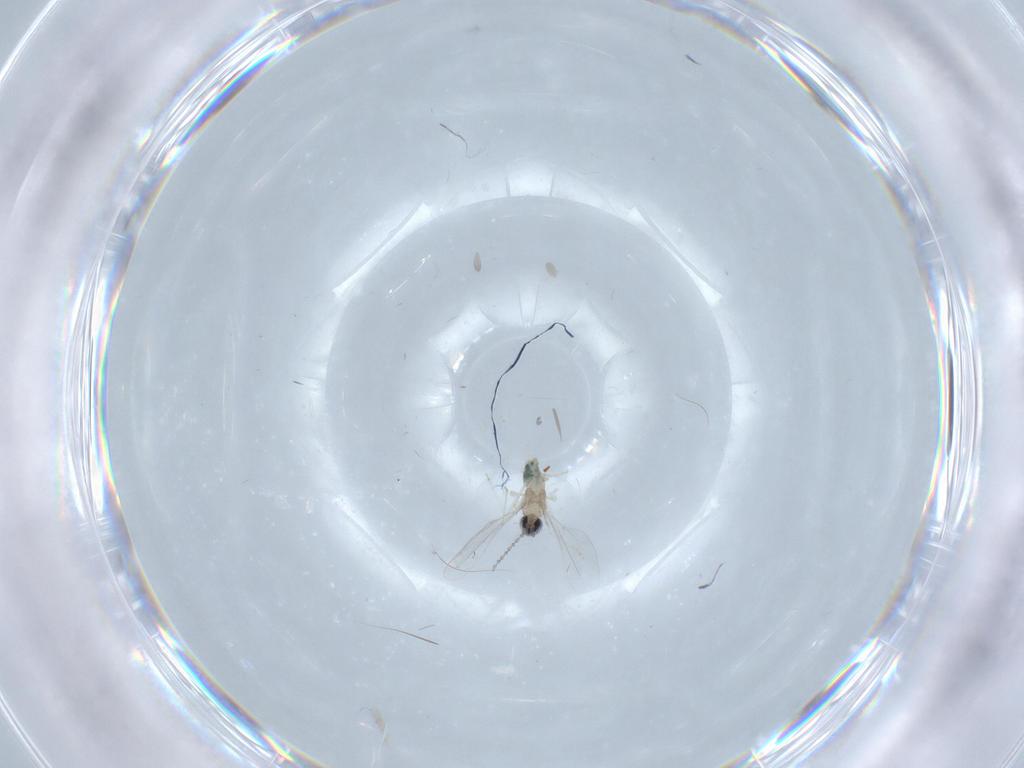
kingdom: Animalia
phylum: Arthropoda
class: Insecta
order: Diptera
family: Cecidomyiidae
